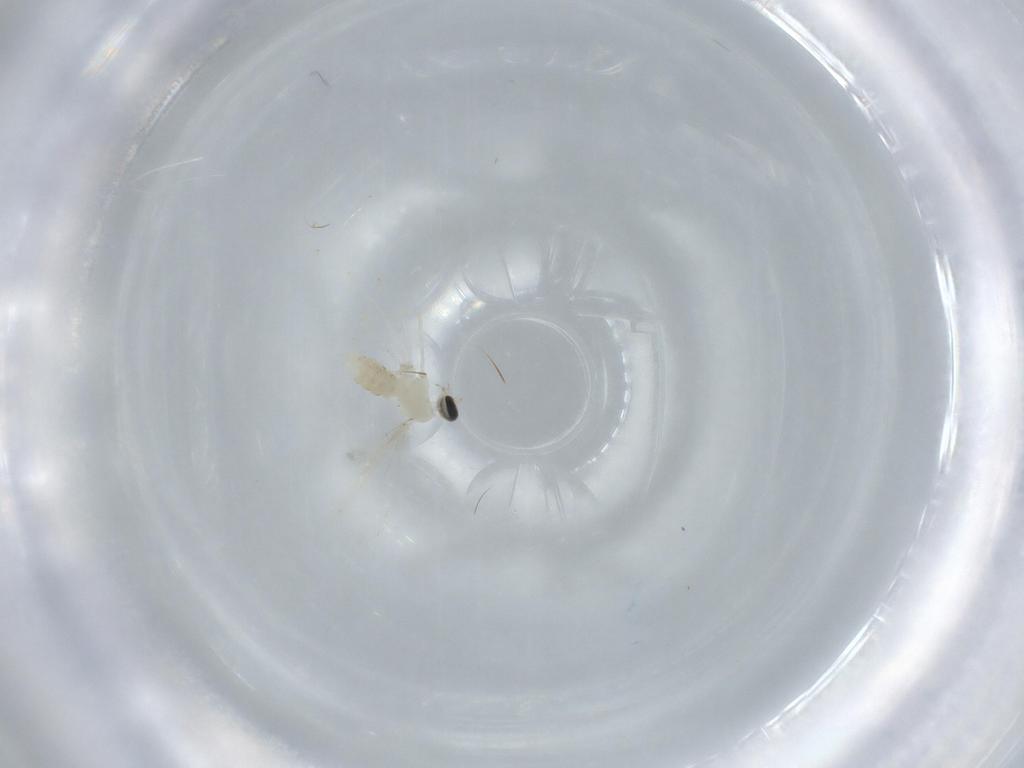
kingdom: Animalia
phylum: Arthropoda
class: Insecta
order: Diptera
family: Cecidomyiidae
